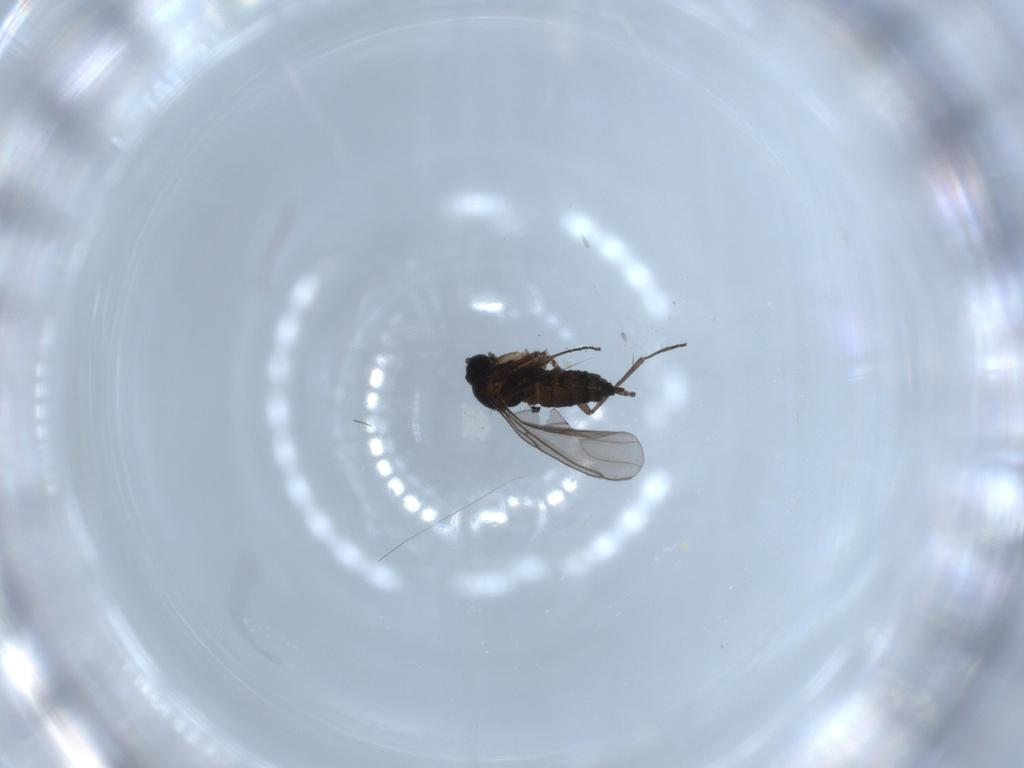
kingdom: Animalia
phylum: Arthropoda
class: Insecta
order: Diptera
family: Sciaridae
